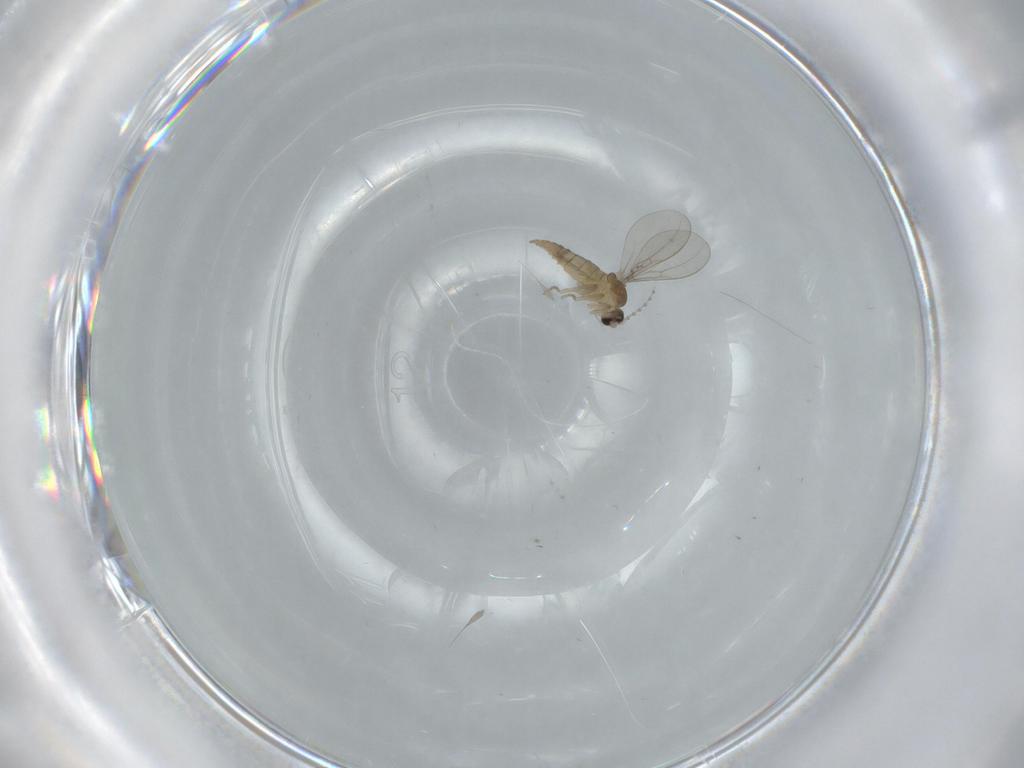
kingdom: Animalia
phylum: Arthropoda
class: Insecta
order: Diptera
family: Cecidomyiidae
